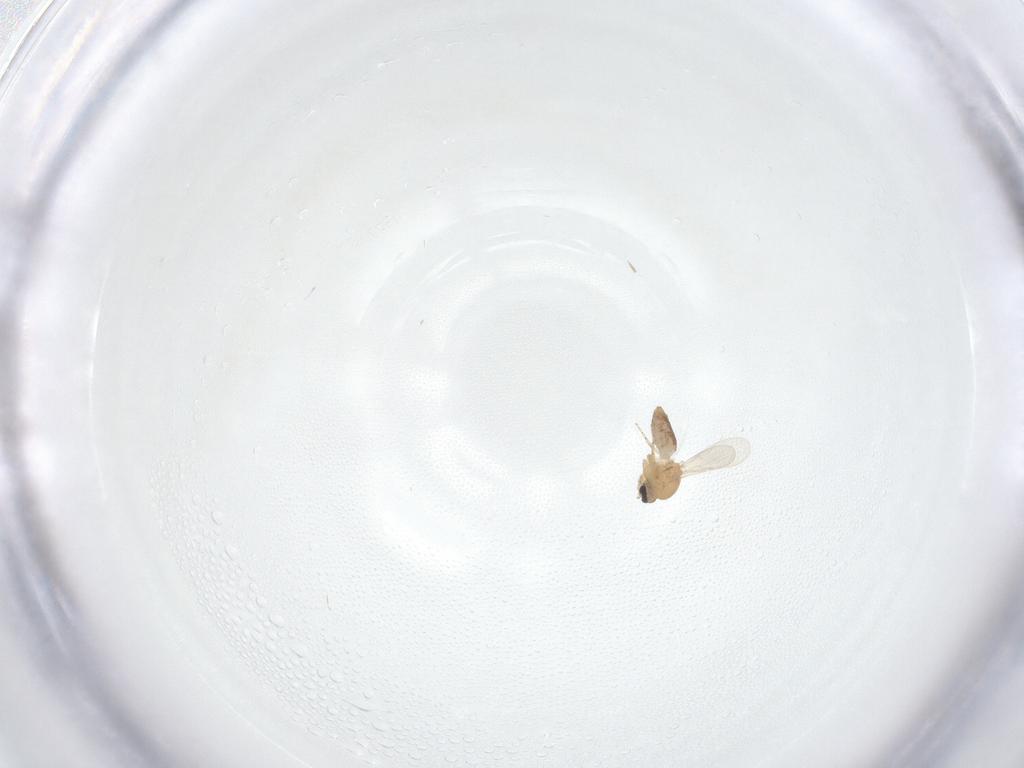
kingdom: Animalia
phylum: Arthropoda
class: Insecta
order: Diptera
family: Ceratopogonidae
